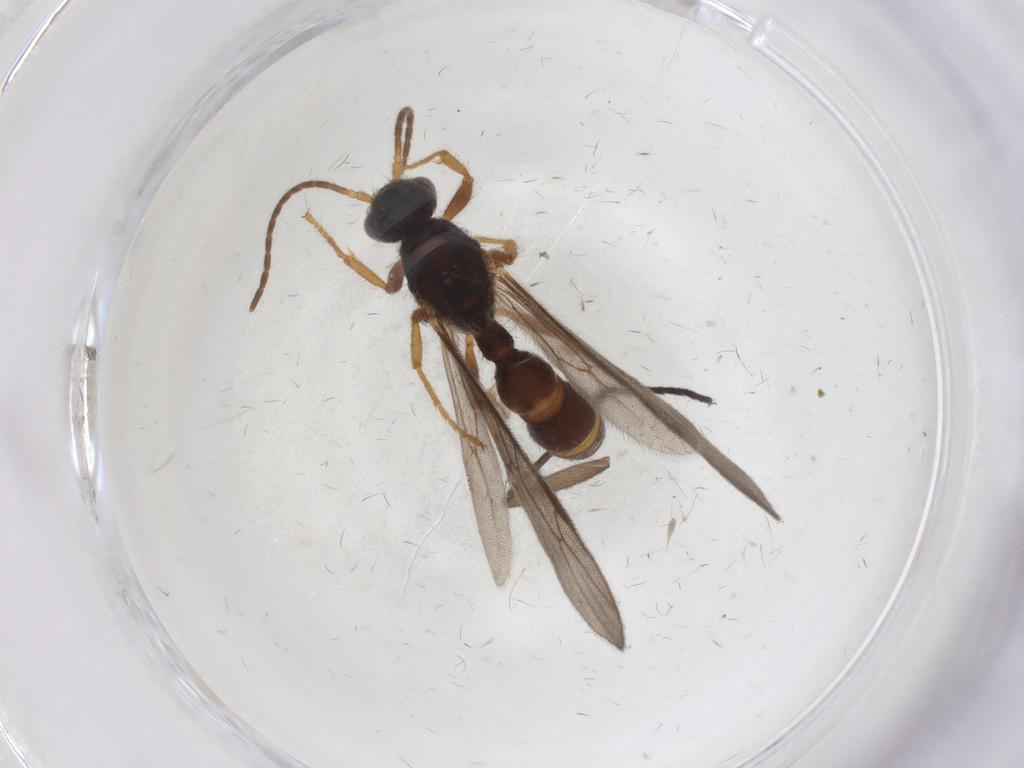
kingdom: Animalia
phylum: Arthropoda
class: Insecta
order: Hymenoptera
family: Formicidae
